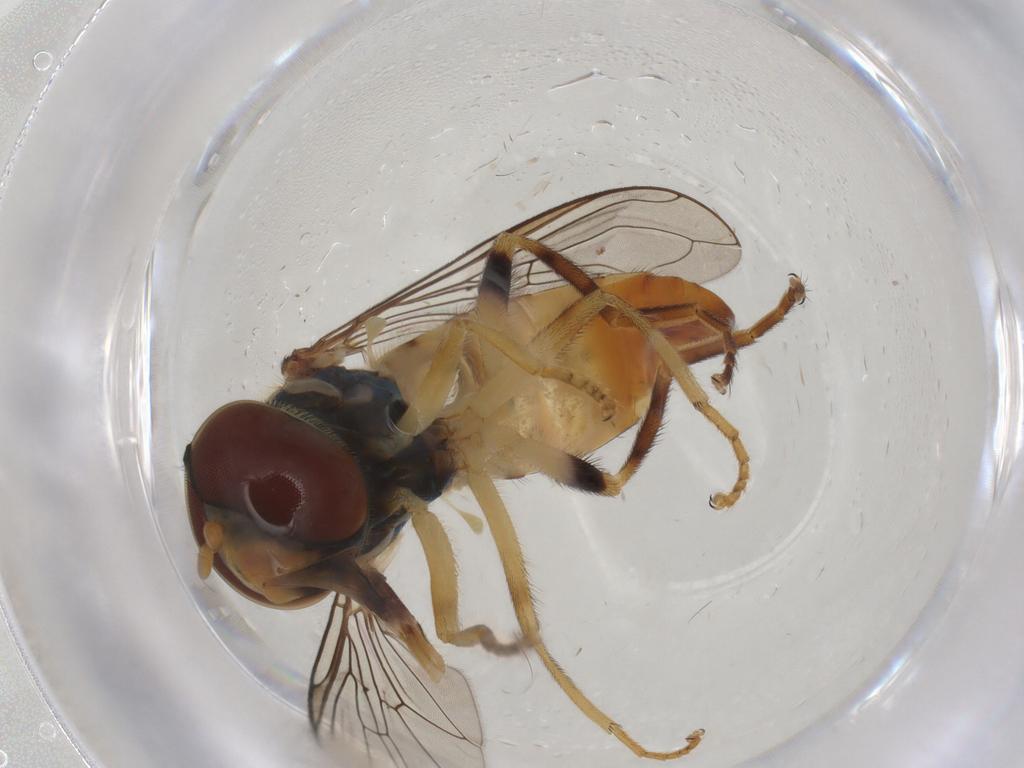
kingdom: Animalia
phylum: Arthropoda
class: Insecta
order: Diptera
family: Syrphidae
